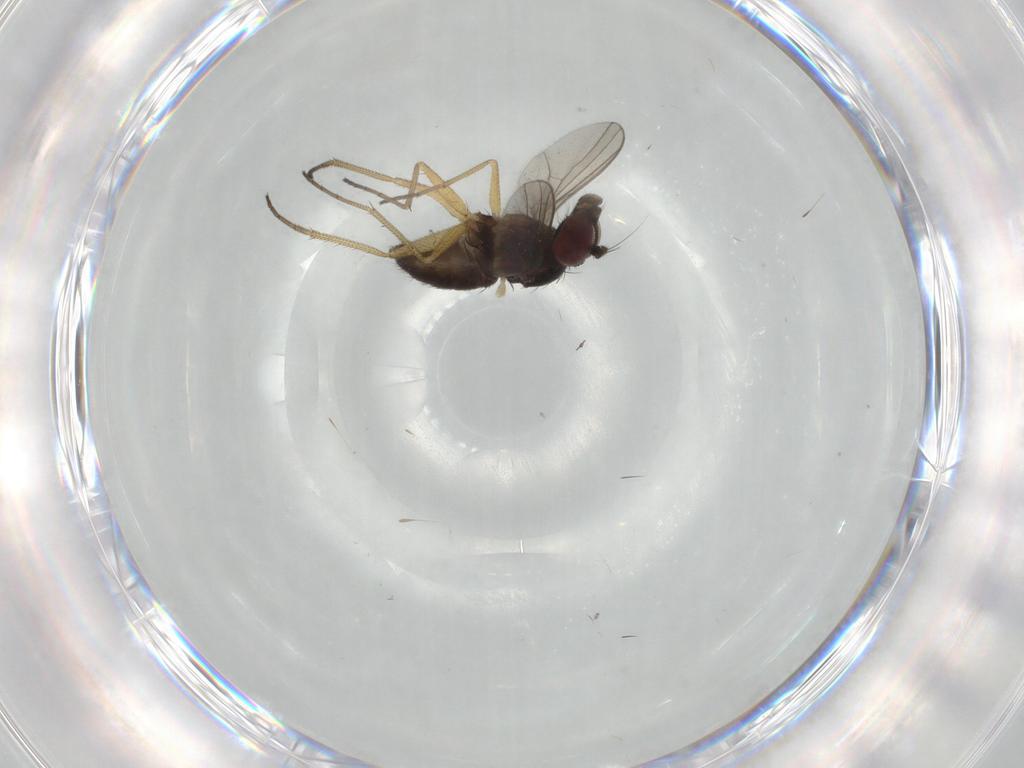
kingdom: Animalia
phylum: Arthropoda
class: Insecta
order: Diptera
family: Dolichopodidae
